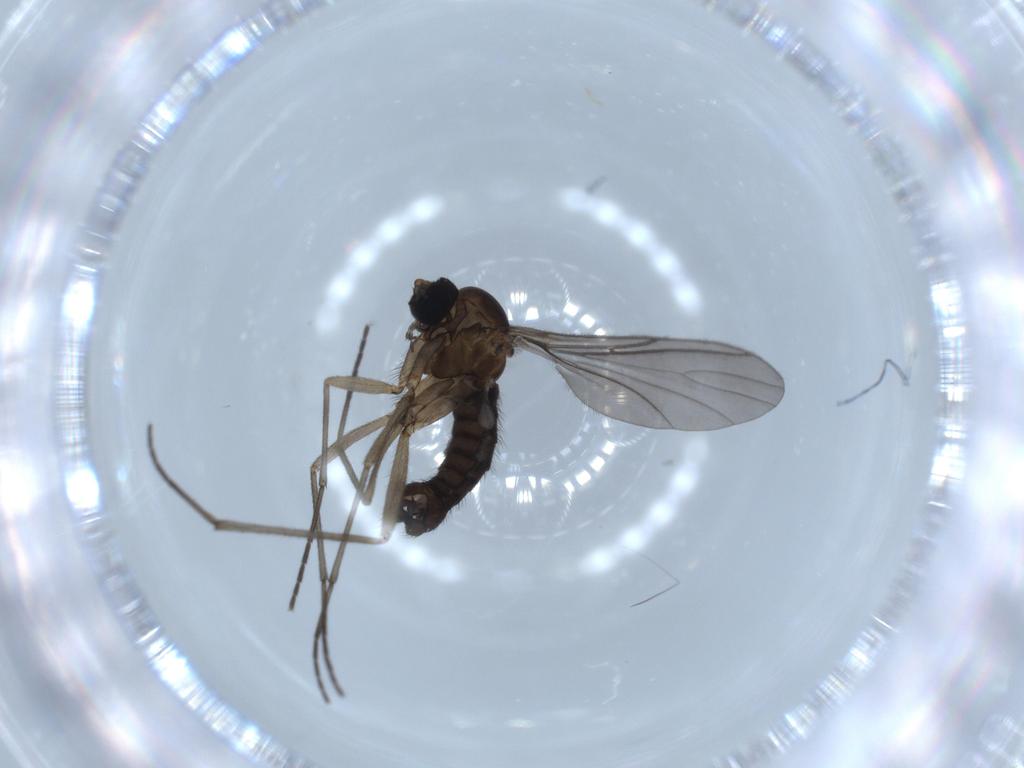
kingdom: Animalia
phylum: Arthropoda
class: Insecta
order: Diptera
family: Sciaridae
